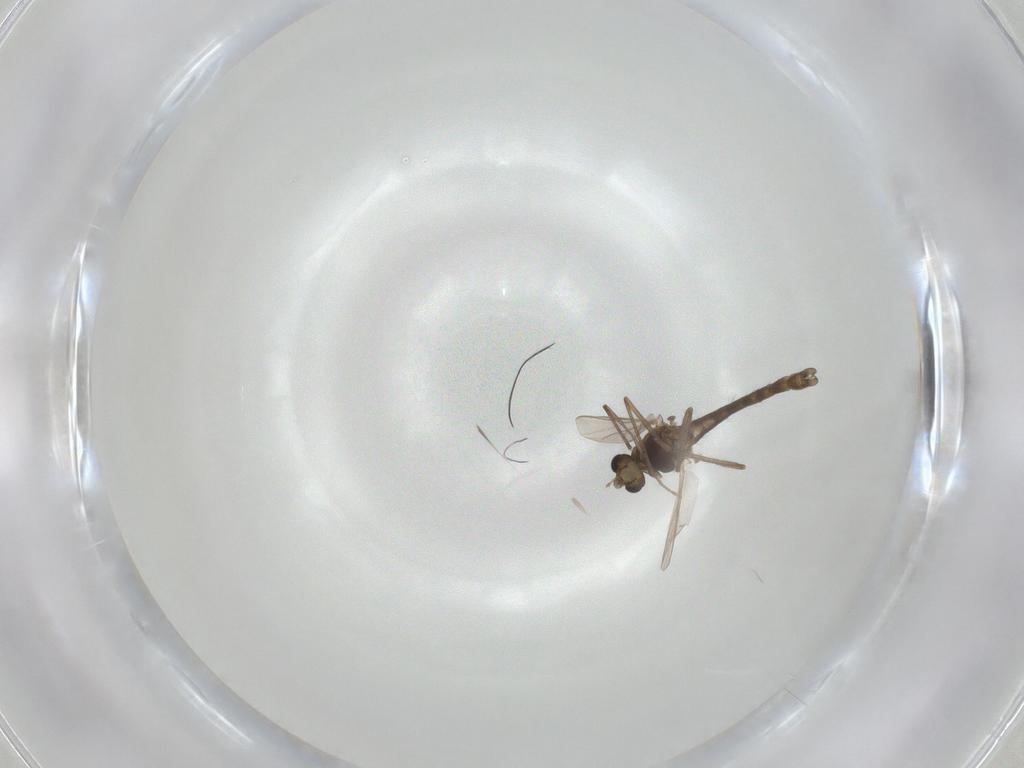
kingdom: Animalia
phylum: Arthropoda
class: Insecta
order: Diptera
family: Chironomidae
